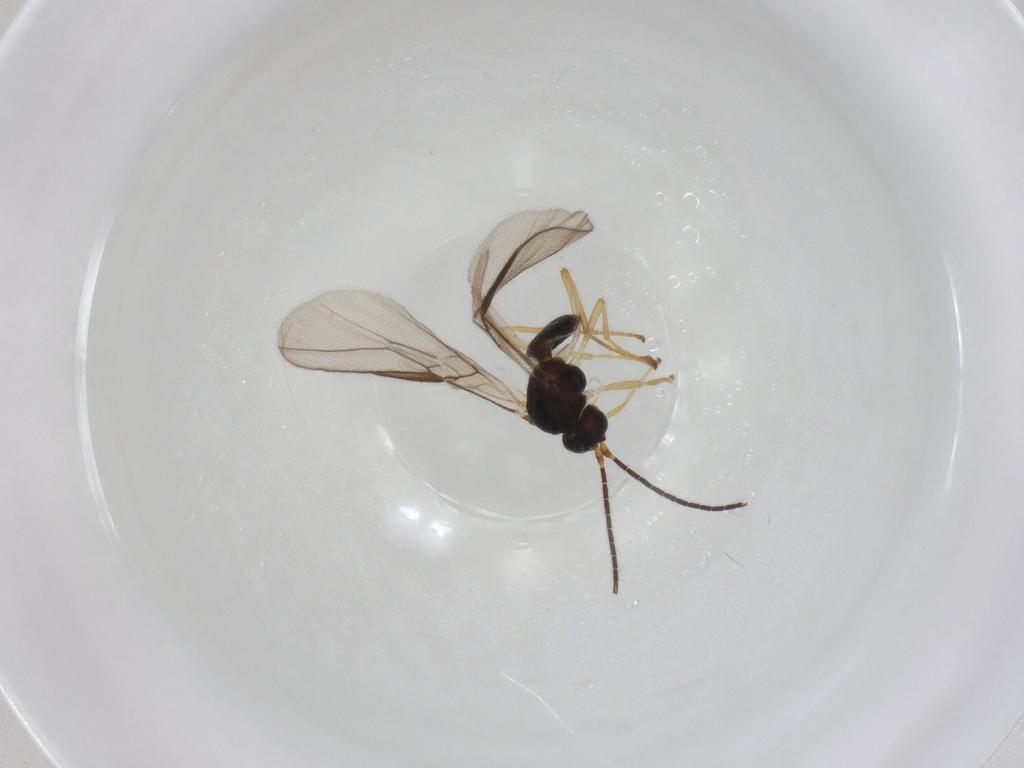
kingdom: Animalia
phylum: Arthropoda
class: Insecta
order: Hymenoptera
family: Braconidae
